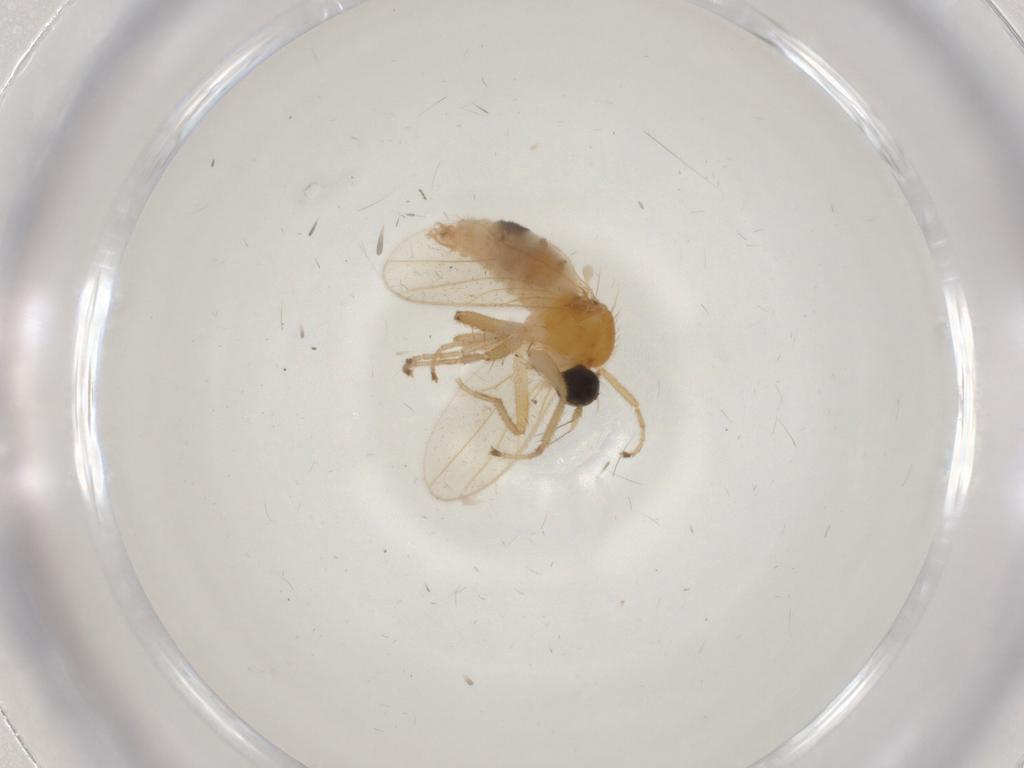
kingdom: Animalia
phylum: Arthropoda
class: Insecta
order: Diptera
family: Hybotidae
